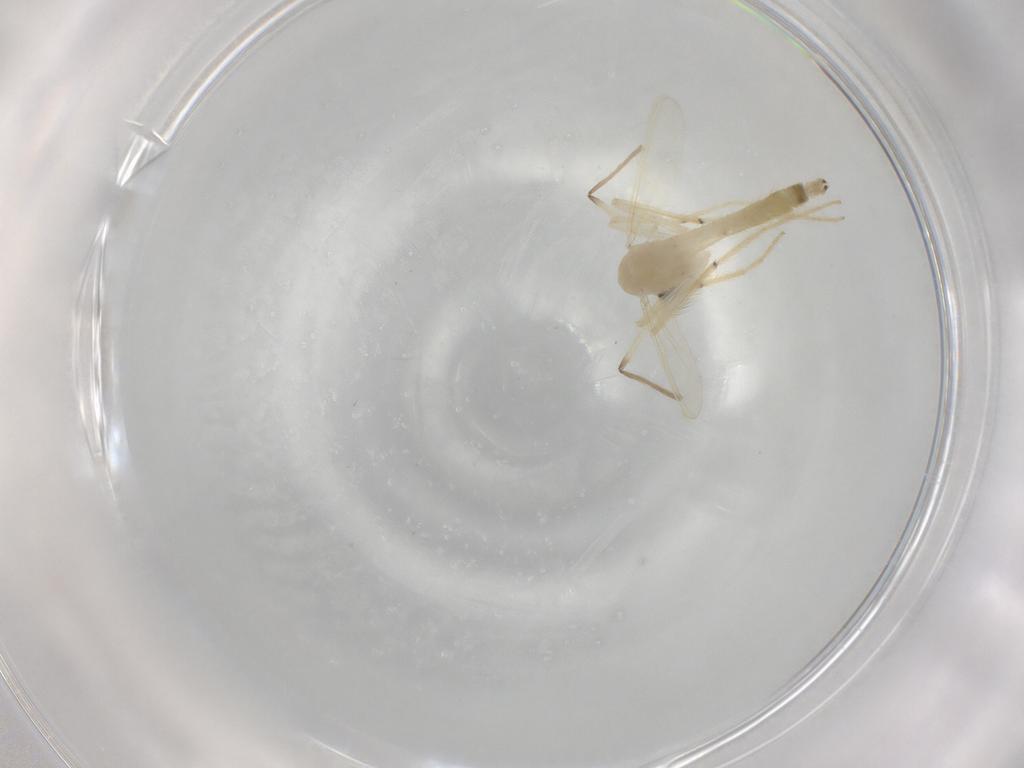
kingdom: Animalia
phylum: Arthropoda
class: Insecta
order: Diptera
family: Chironomidae
